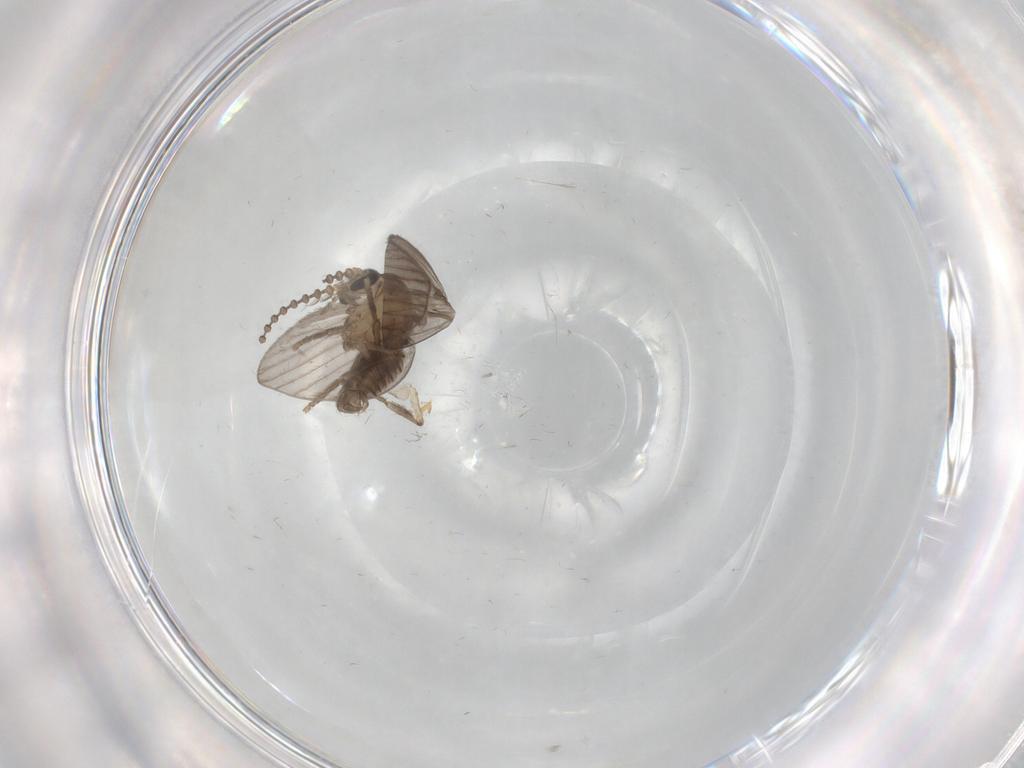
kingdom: Animalia
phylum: Arthropoda
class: Insecta
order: Diptera
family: Psychodidae
